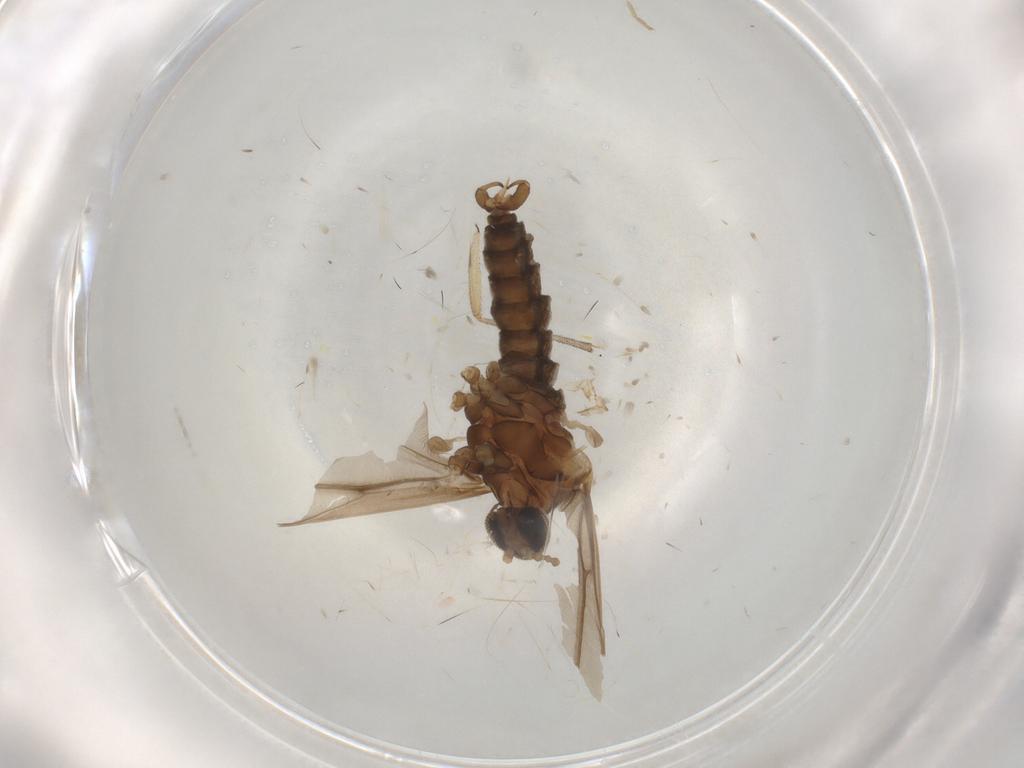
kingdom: Animalia
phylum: Arthropoda
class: Insecta
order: Diptera
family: Cecidomyiidae
